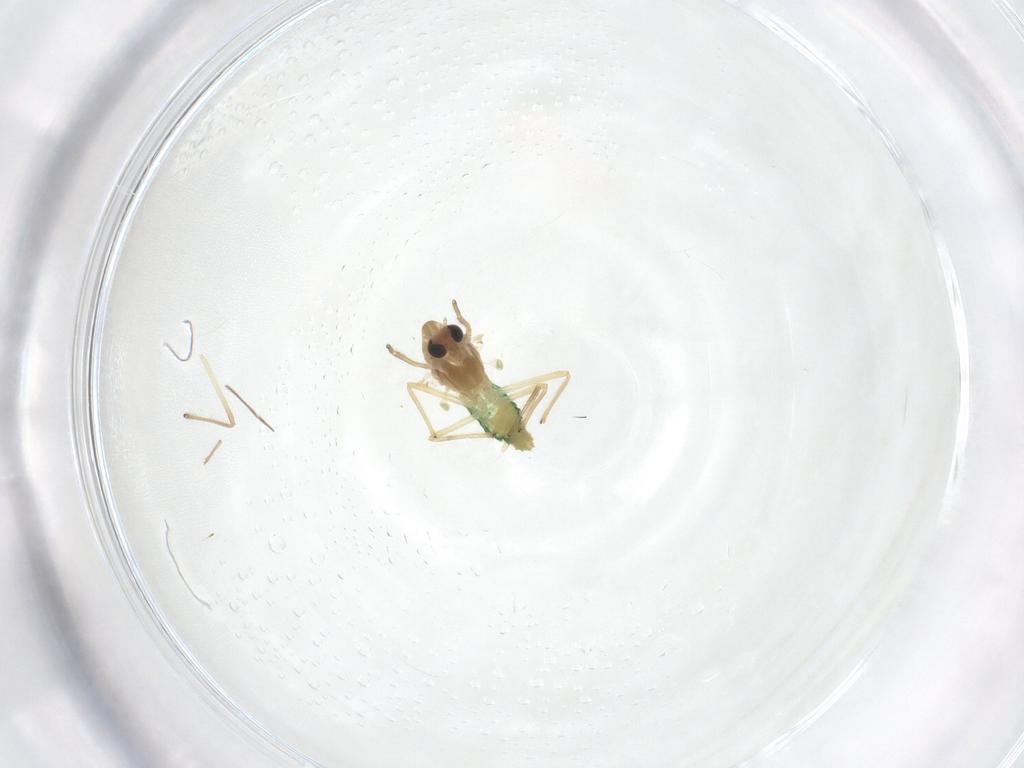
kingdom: Animalia
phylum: Arthropoda
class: Insecta
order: Diptera
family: Chironomidae
